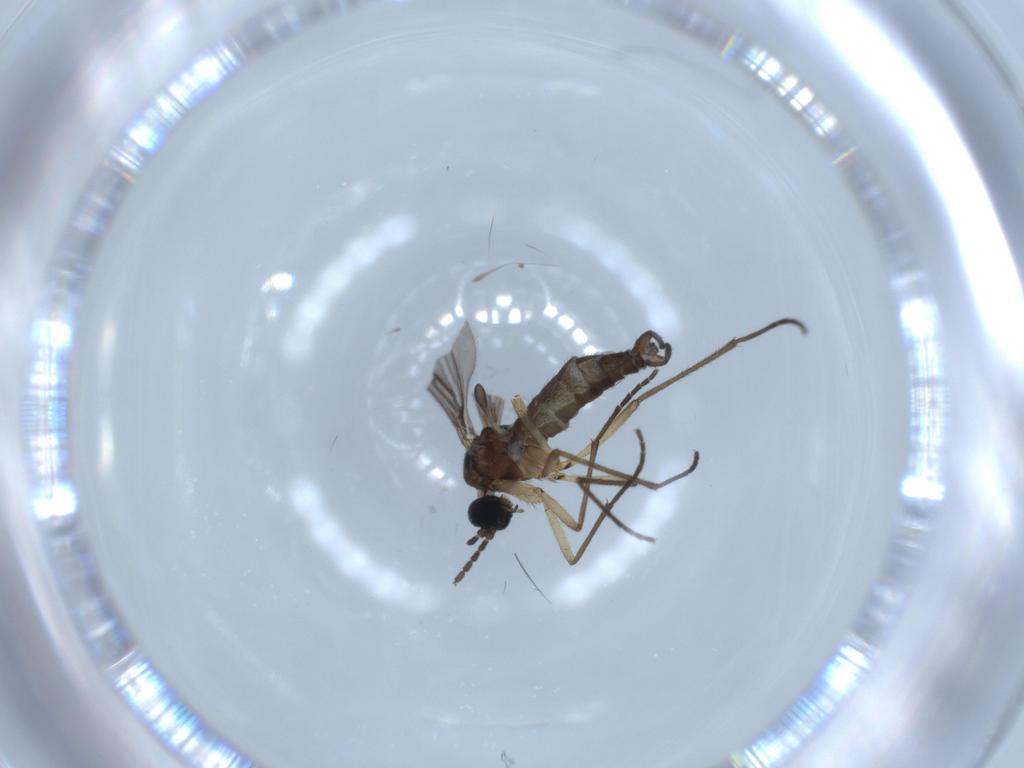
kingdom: Animalia
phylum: Arthropoda
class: Insecta
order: Diptera
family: Sciaridae
